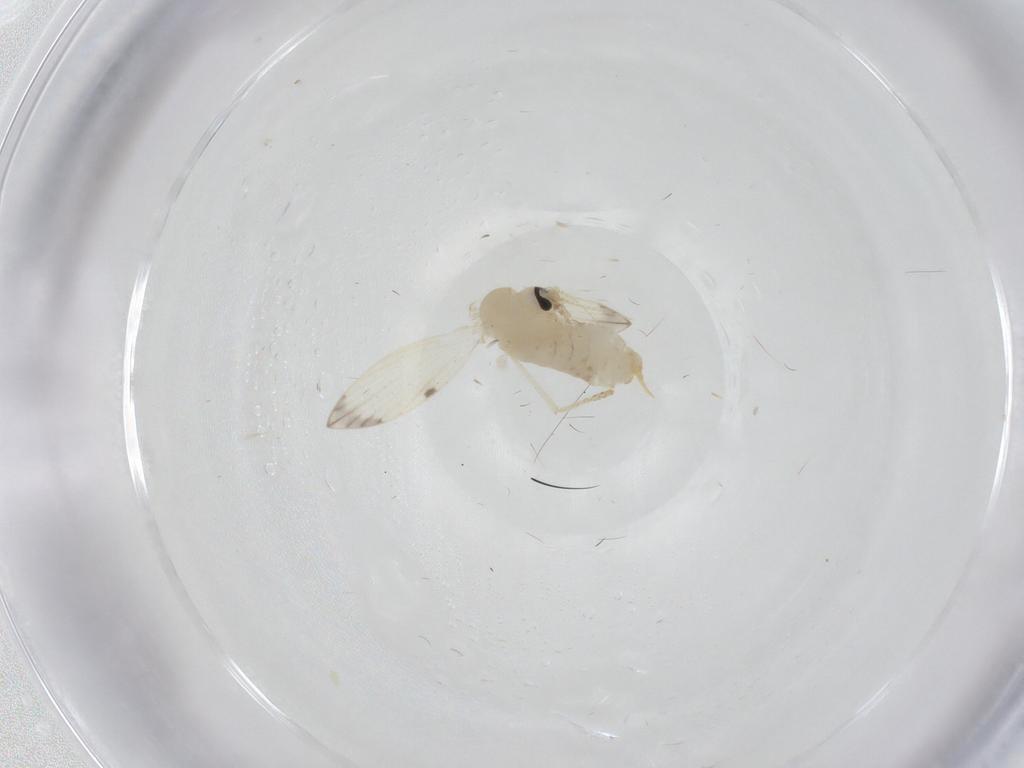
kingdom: Animalia
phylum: Arthropoda
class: Insecta
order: Diptera
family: Psychodidae
